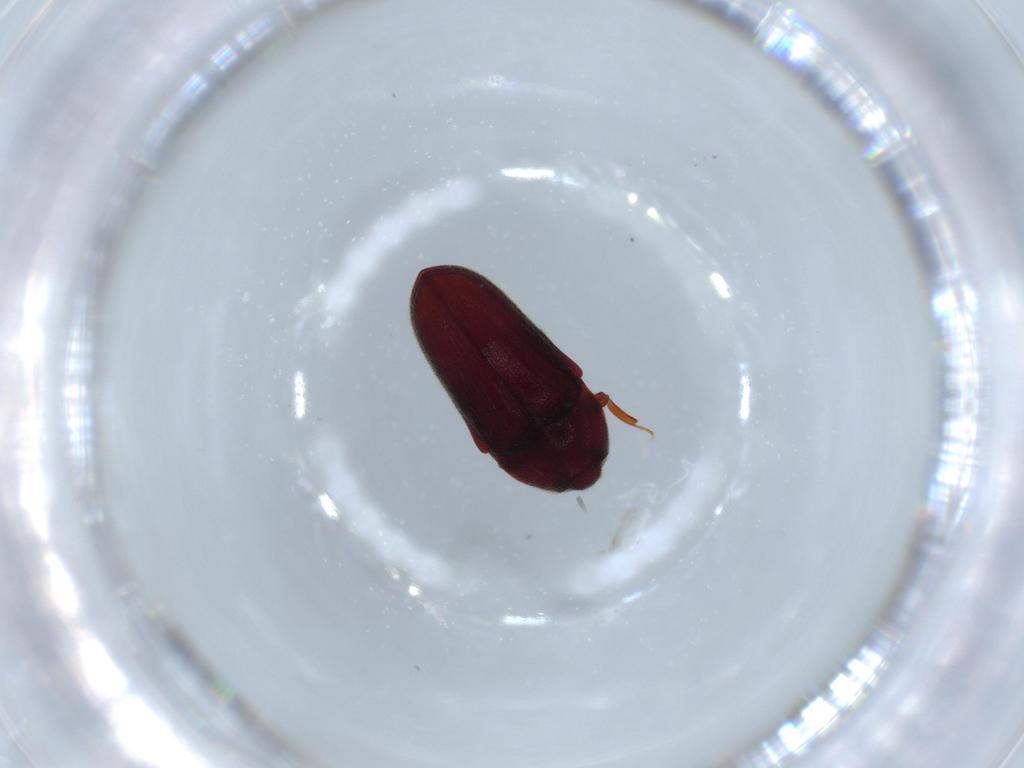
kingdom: Animalia
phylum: Arthropoda
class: Insecta
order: Coleoptera
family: Throscidae
